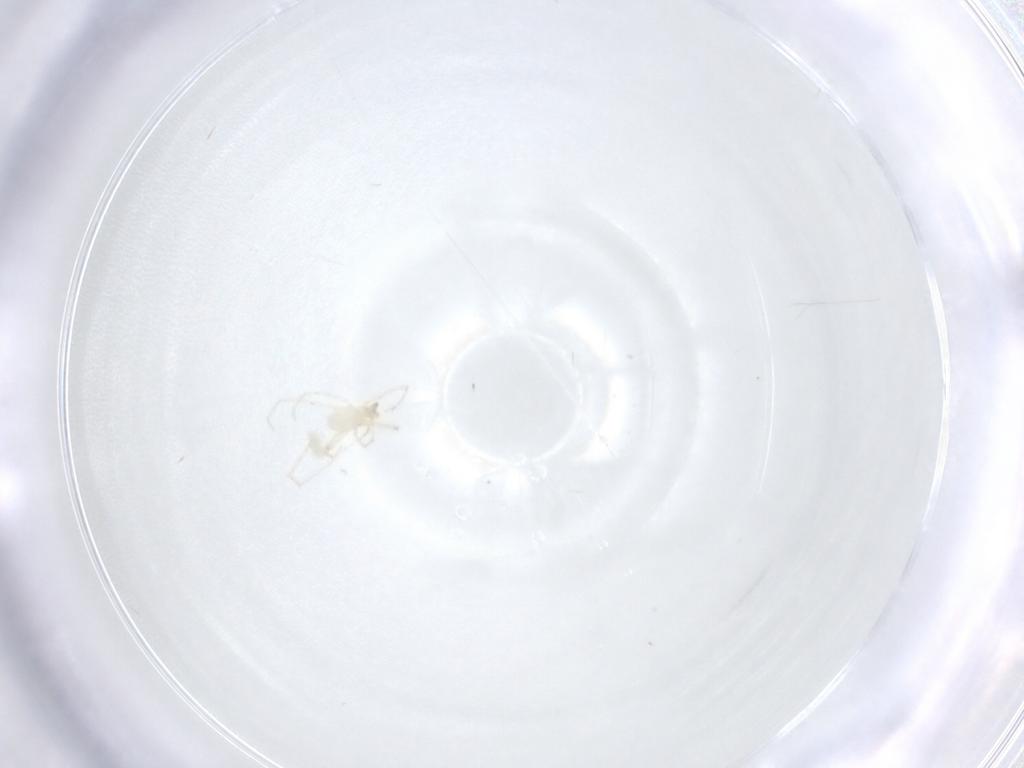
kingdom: Animalia
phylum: Arthropoda
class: Arachnida
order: Trombidiformes
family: Erythraeidae
